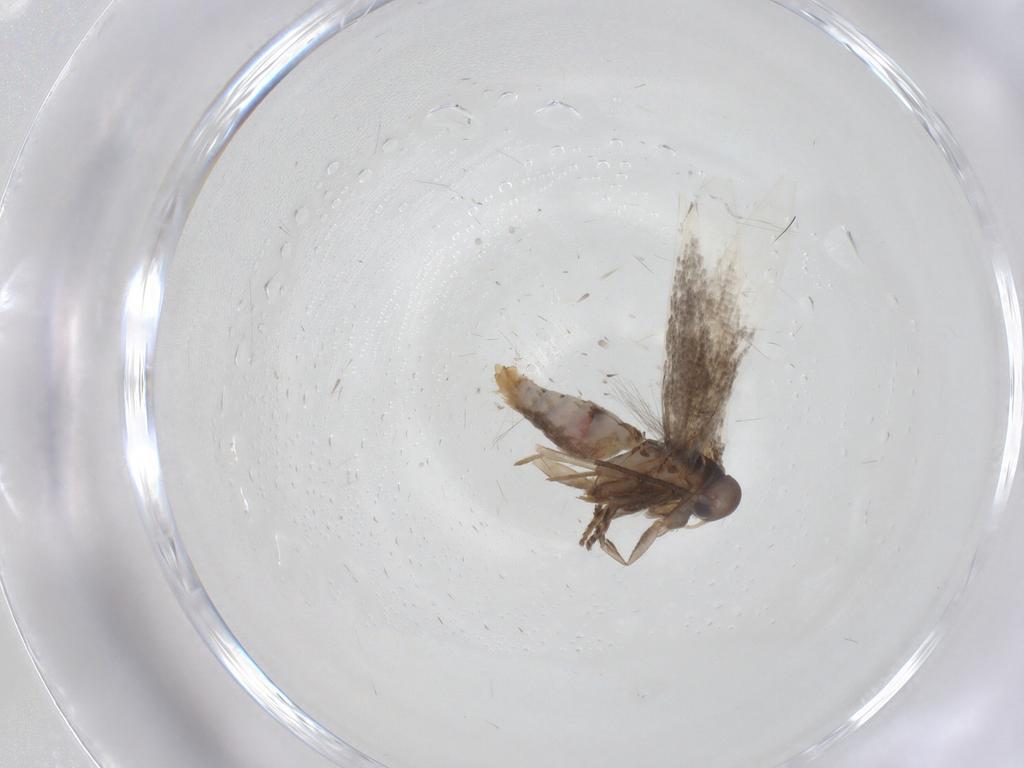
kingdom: Animalia
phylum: Arthropoda
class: Insecta
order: Lepidoptera
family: Elachistidae
